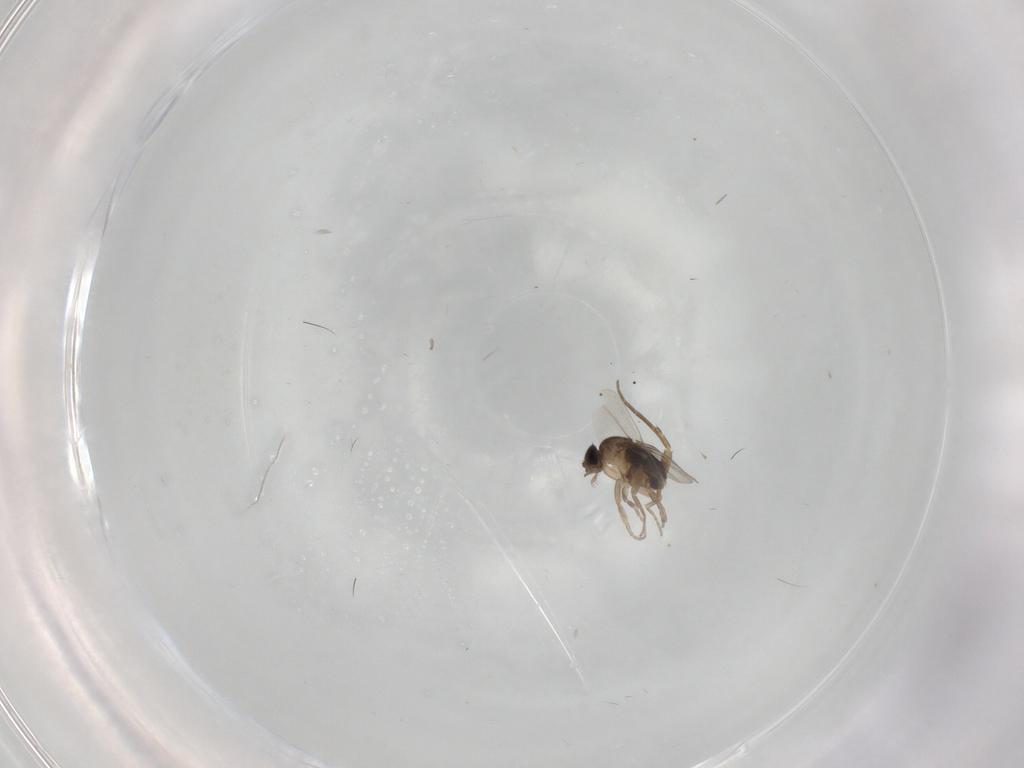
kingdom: Animalia
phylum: Arthropoda
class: Insecta
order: Diptera
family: Phoridae
